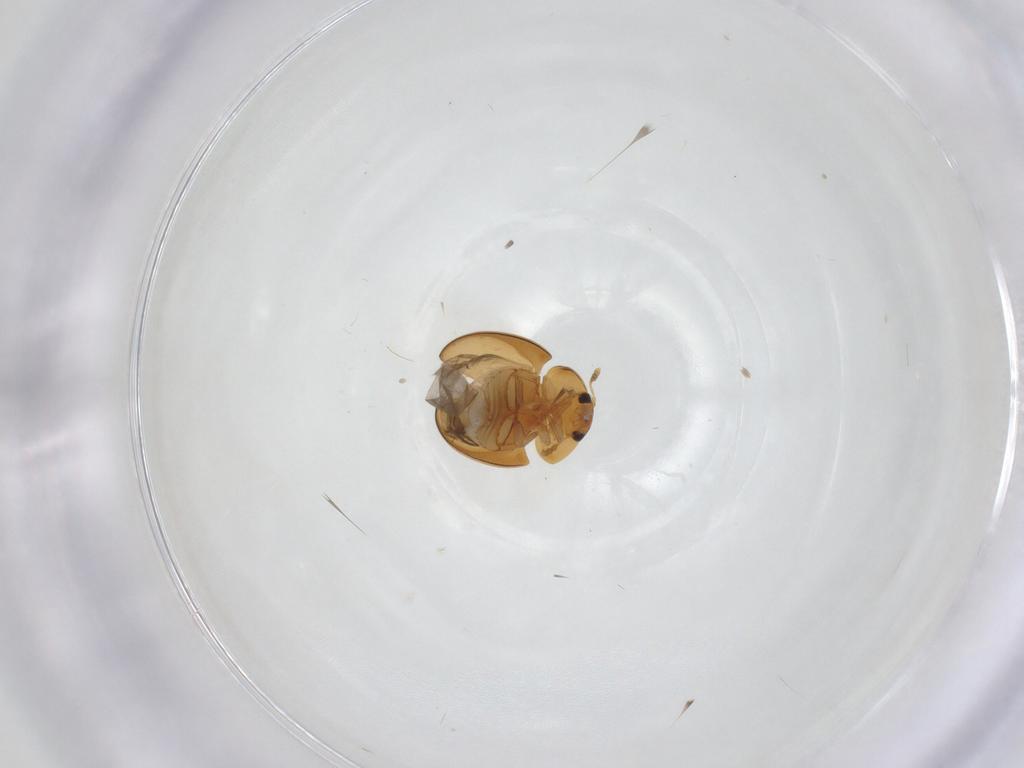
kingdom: Animalia
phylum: Arthropoda
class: Insecta
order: Coleoptera
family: Phalacridae
